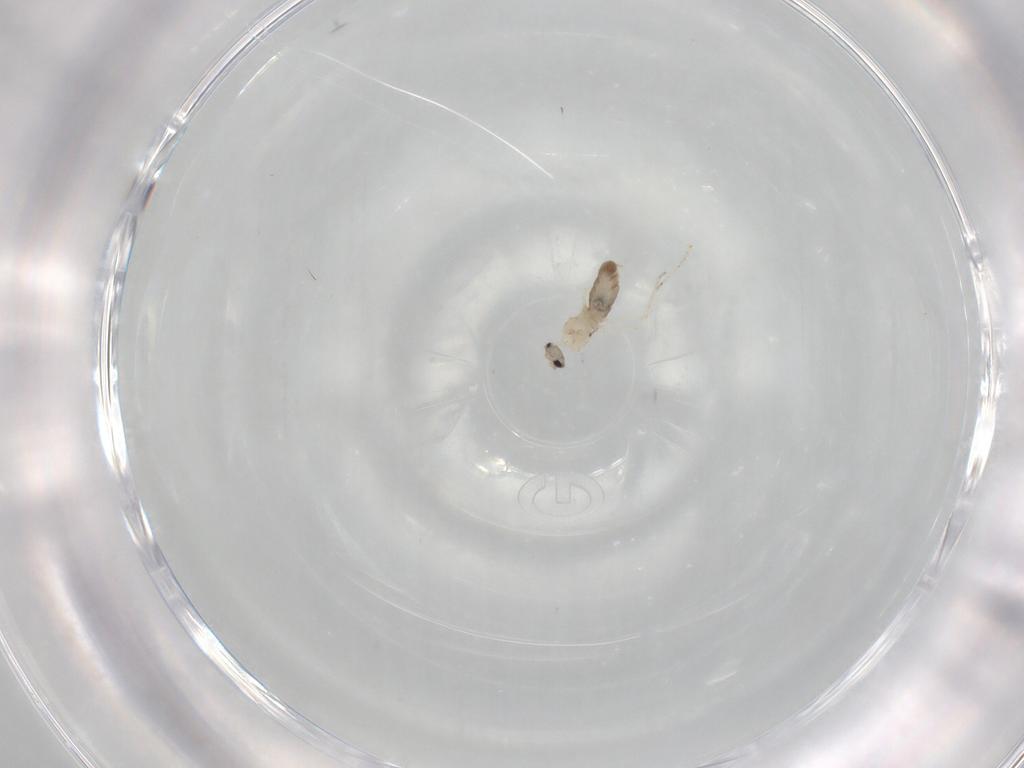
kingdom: Animalia
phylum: Arthropoda
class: Insecta
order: Diptera
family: Cecidomyiidae
